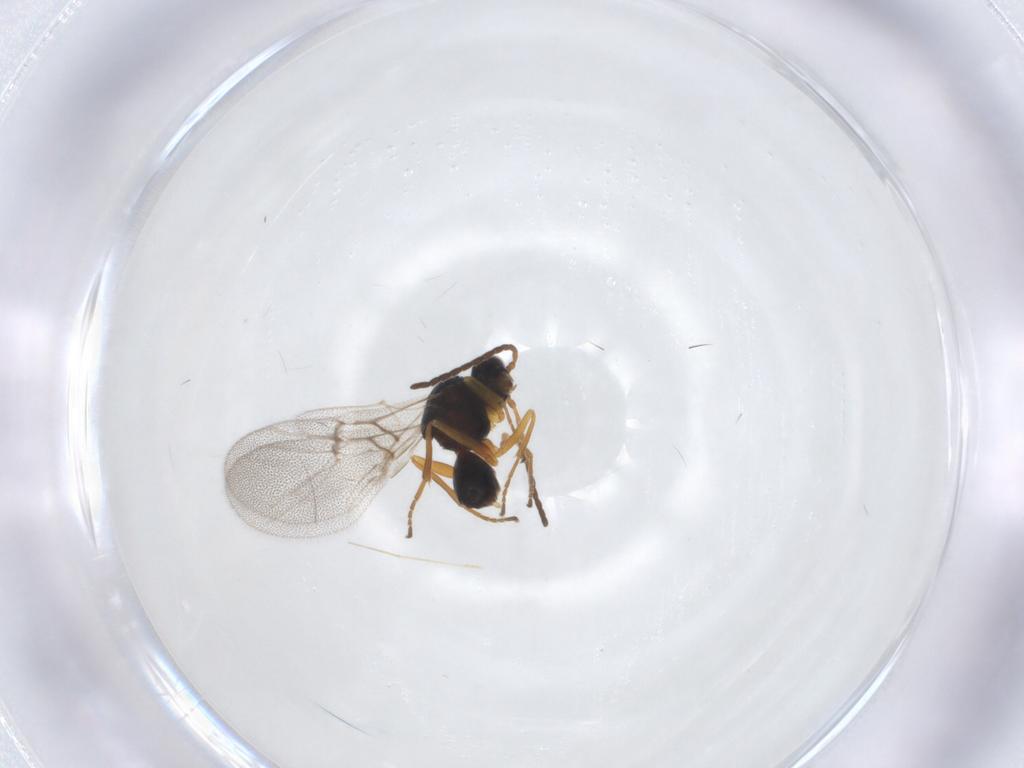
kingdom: Animalia
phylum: Arthropoda
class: Insecta
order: Hymenoptera
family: Cynipidae
